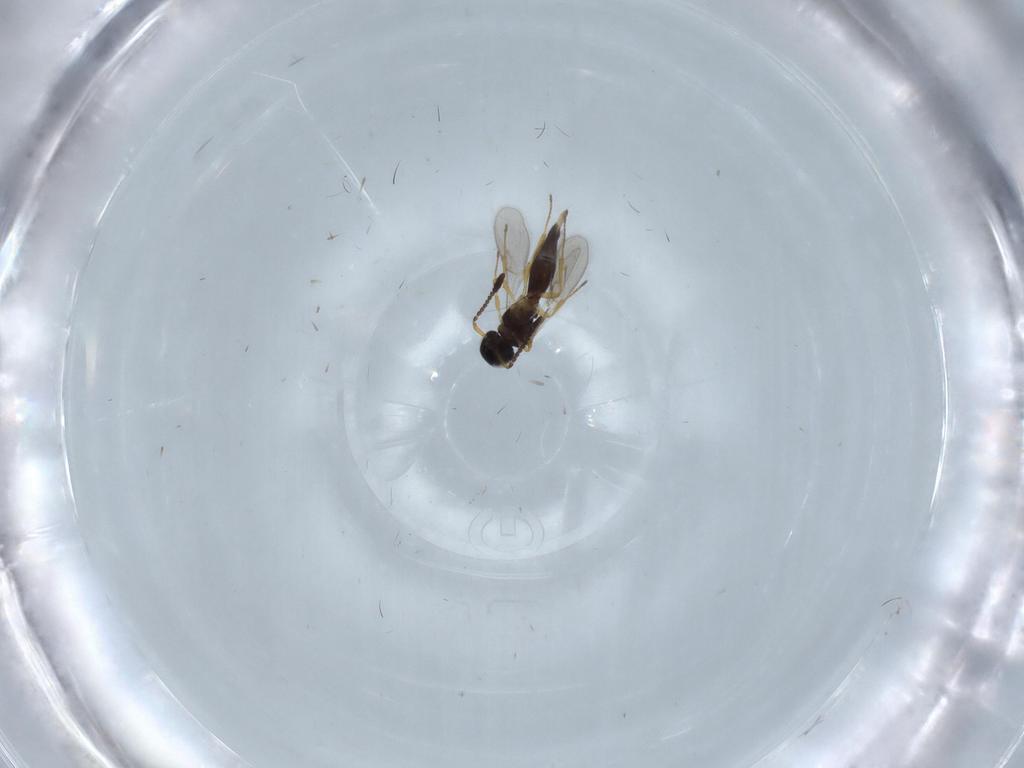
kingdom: Animalia
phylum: Arthropoda
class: Insecta
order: Hymenoptera
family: Scelionidae
